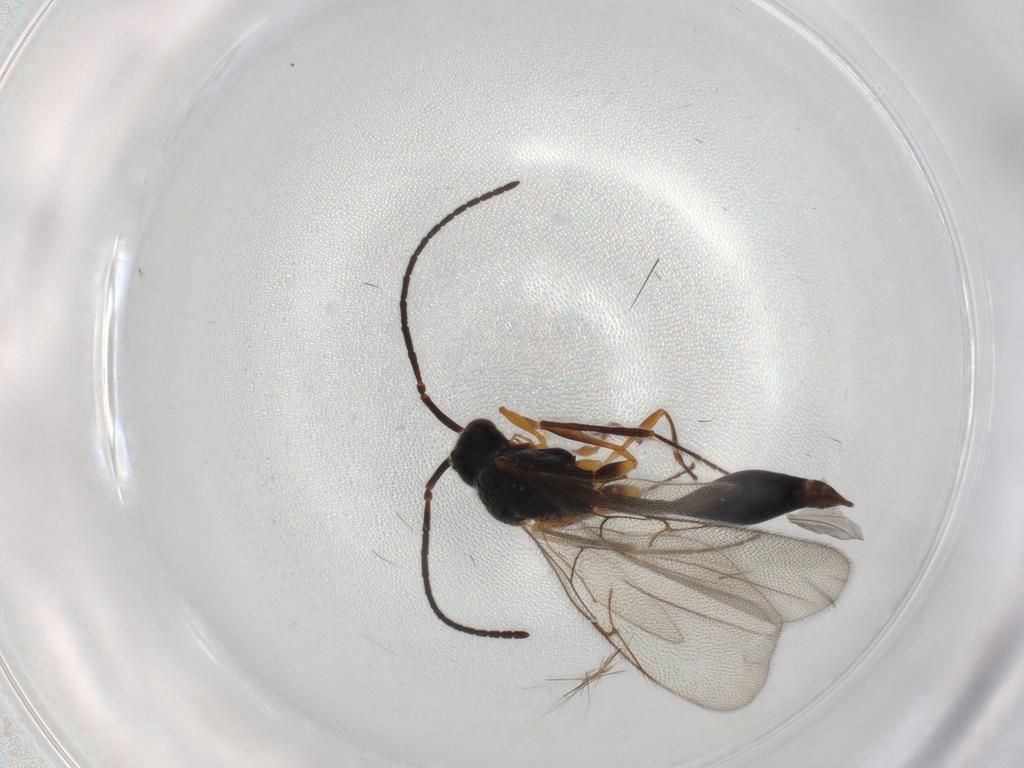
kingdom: Animalia
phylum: Arthropoda
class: Insecta
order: Hymenoptera
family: Diapriidae
